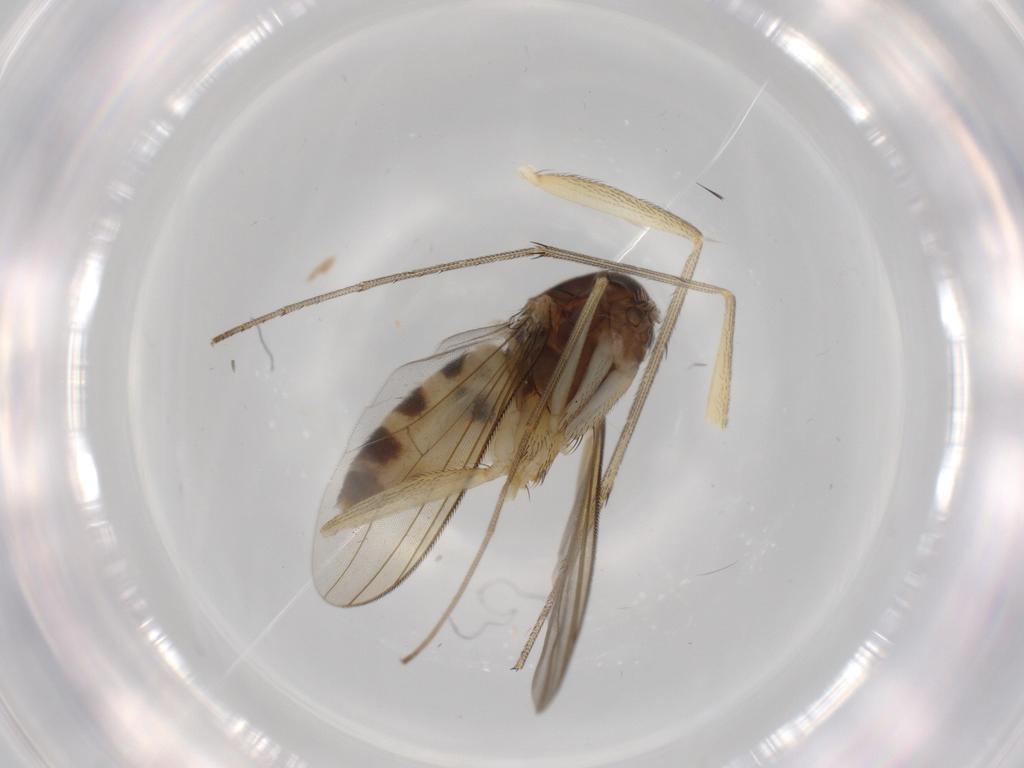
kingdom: Animalia
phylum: Arthropoda
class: Insecta
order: Diptera
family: Dolichopodidae
